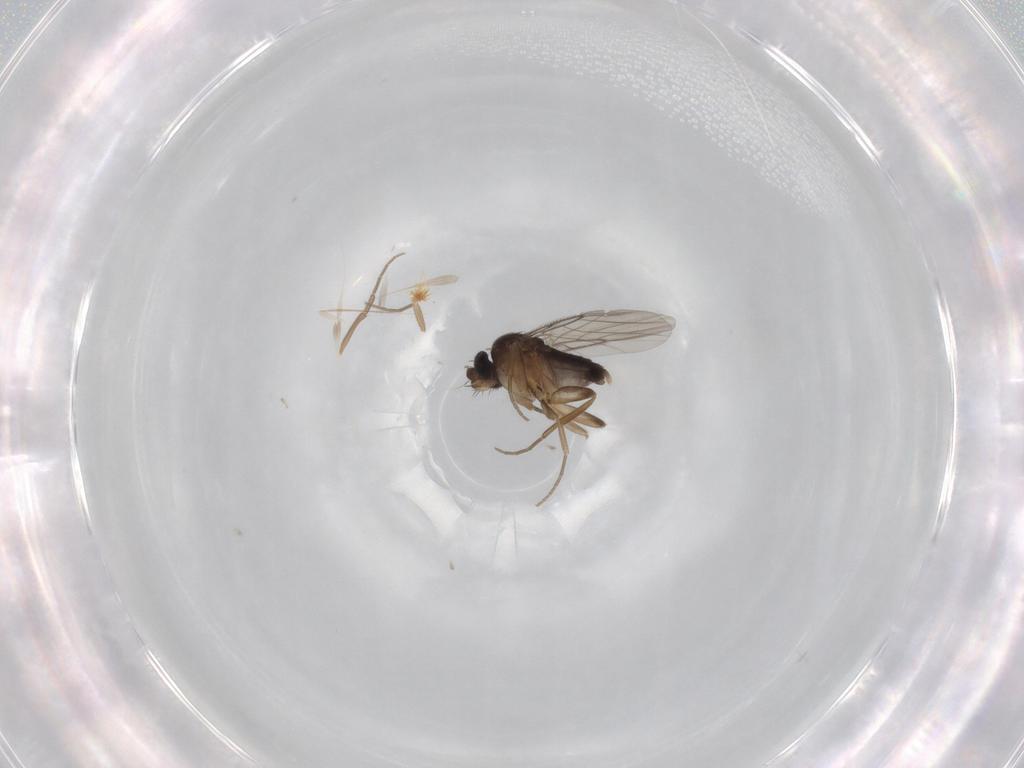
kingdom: Animalia
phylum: Arthropoda
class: Insecta
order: Diptera
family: Phoridae
